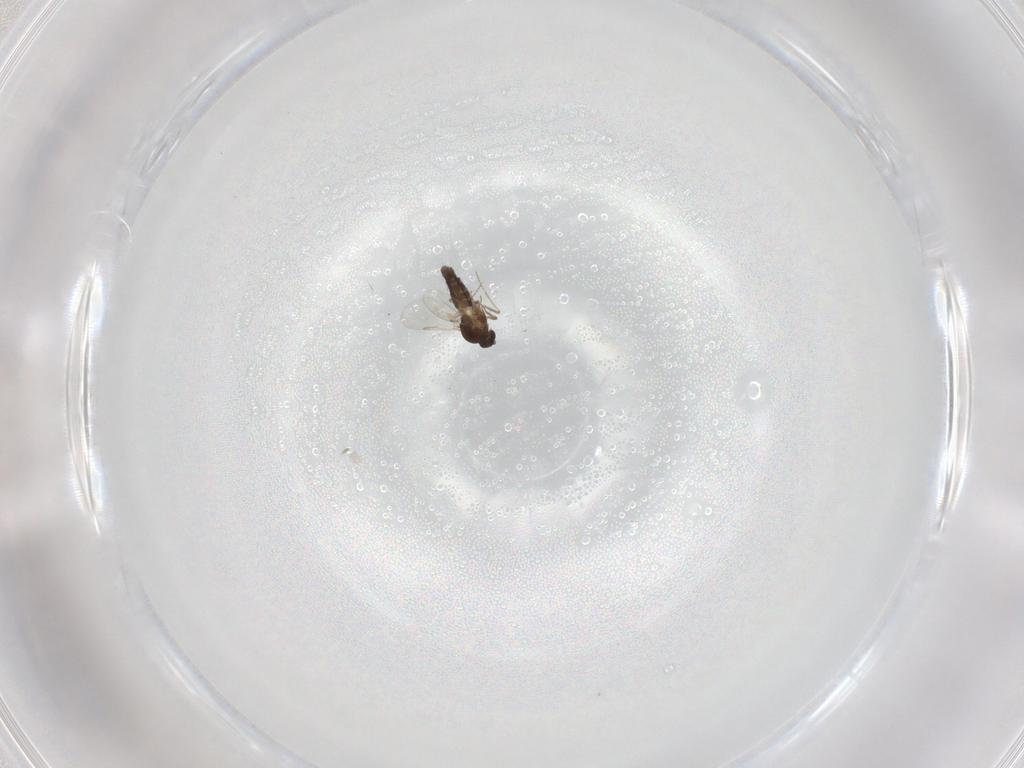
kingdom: Animalia
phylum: Arthropoda
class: Insecta
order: Diptera
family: Ceratopogonidae
